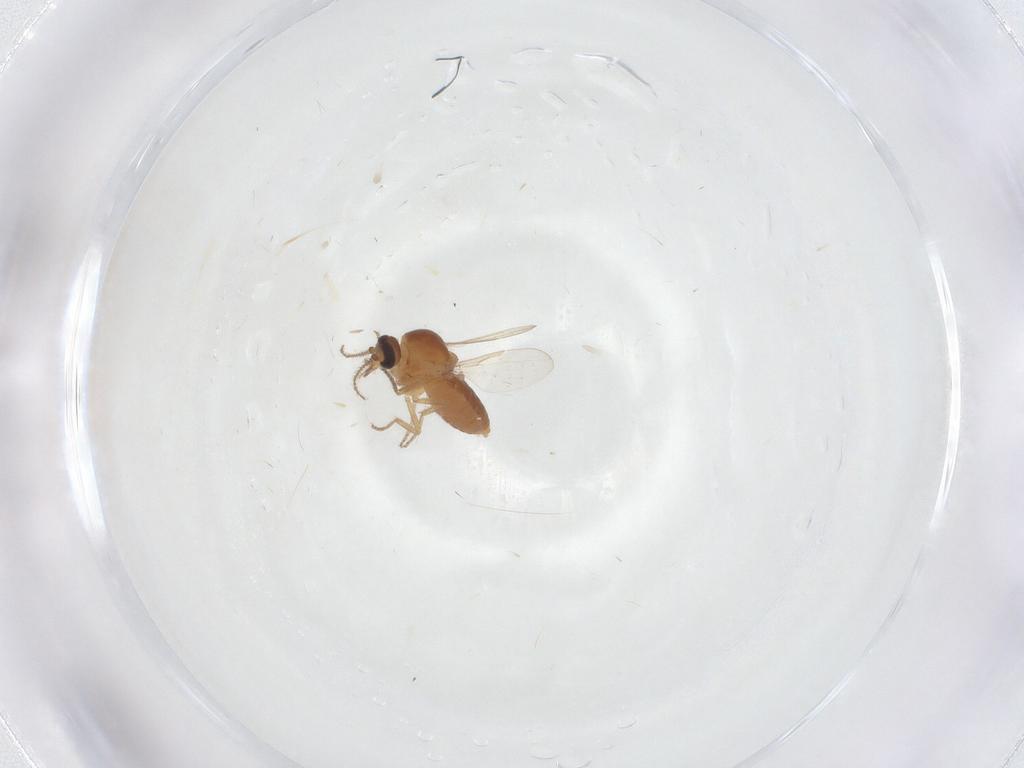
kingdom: Animalia
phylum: Arthropoda
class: Insecta
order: Diptera
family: Ceratopogonidae
